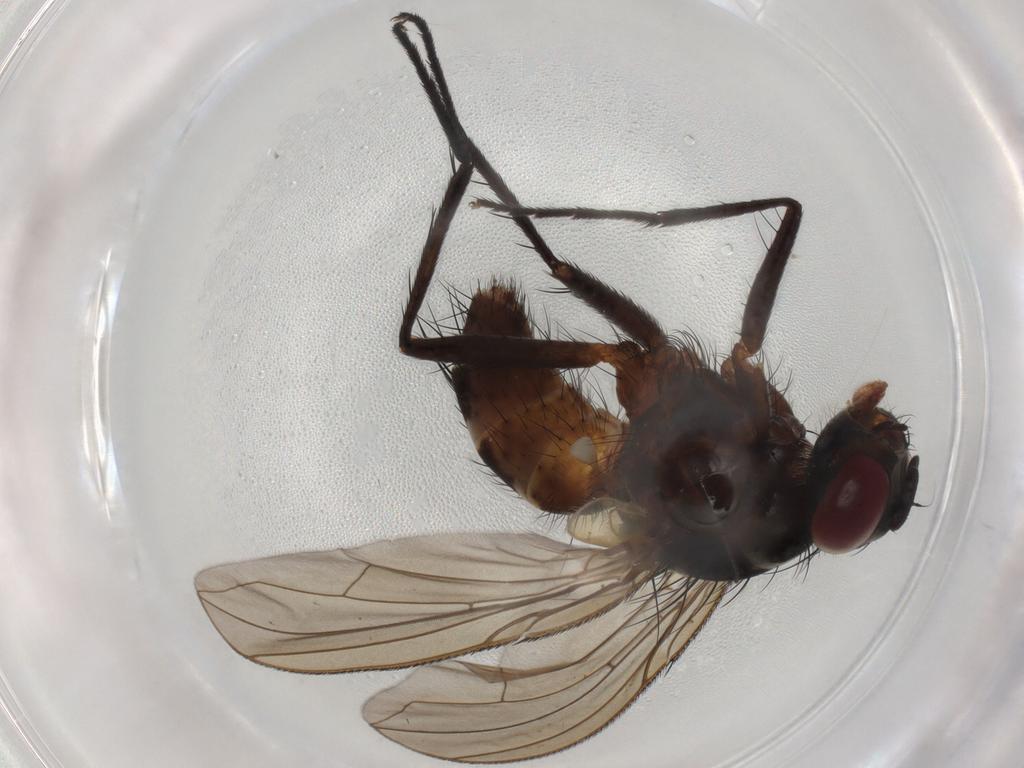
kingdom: Animalia
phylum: Arthropoda
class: Insecta
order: Diptera
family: Muscidae
